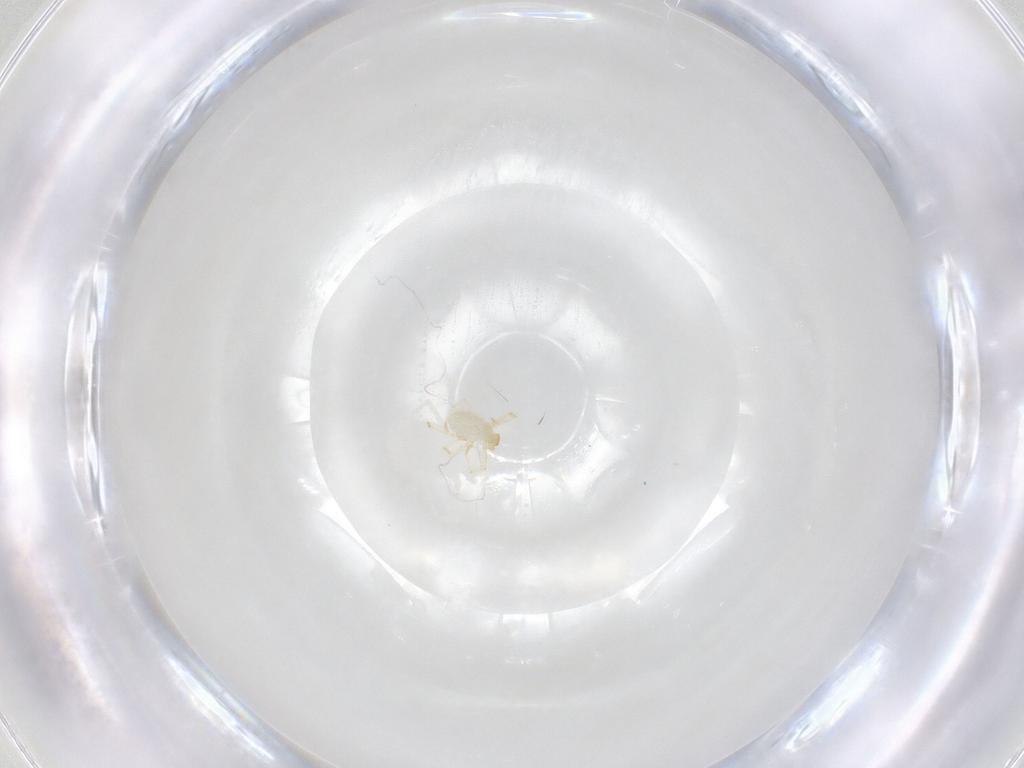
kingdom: Animalia
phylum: Arthropoda
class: Arachnida
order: Trombidiformes
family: Erythraeidae
